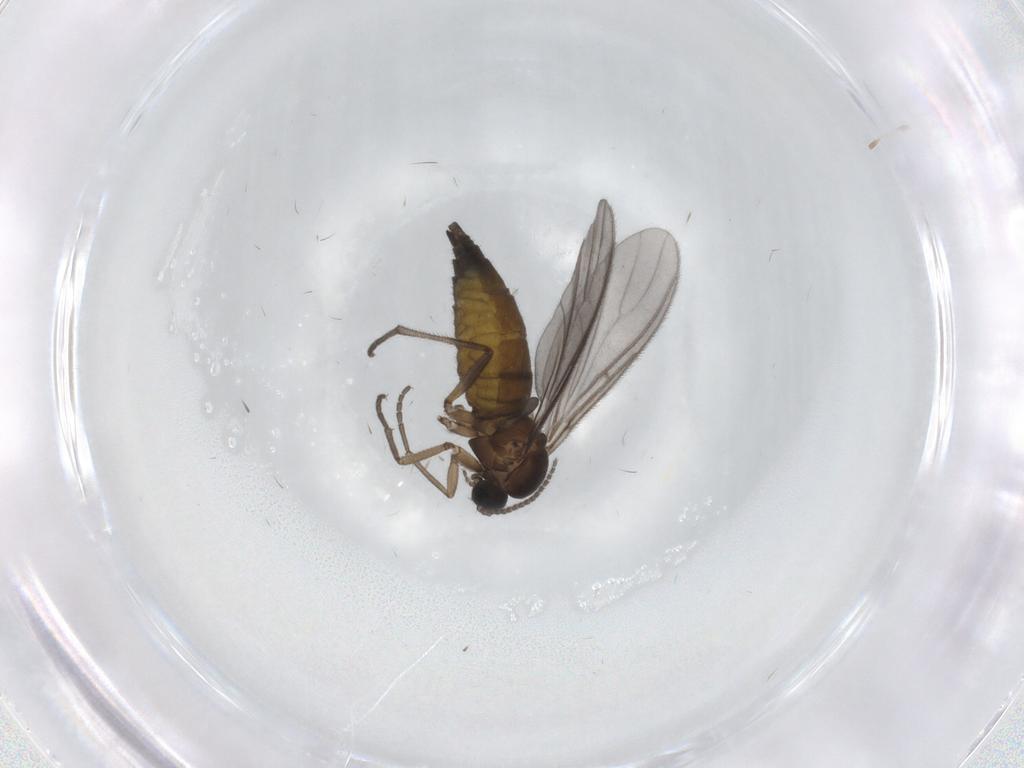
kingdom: Animalia
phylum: Arthropoda
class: Insecta
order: Diptera
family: Sciaridae
